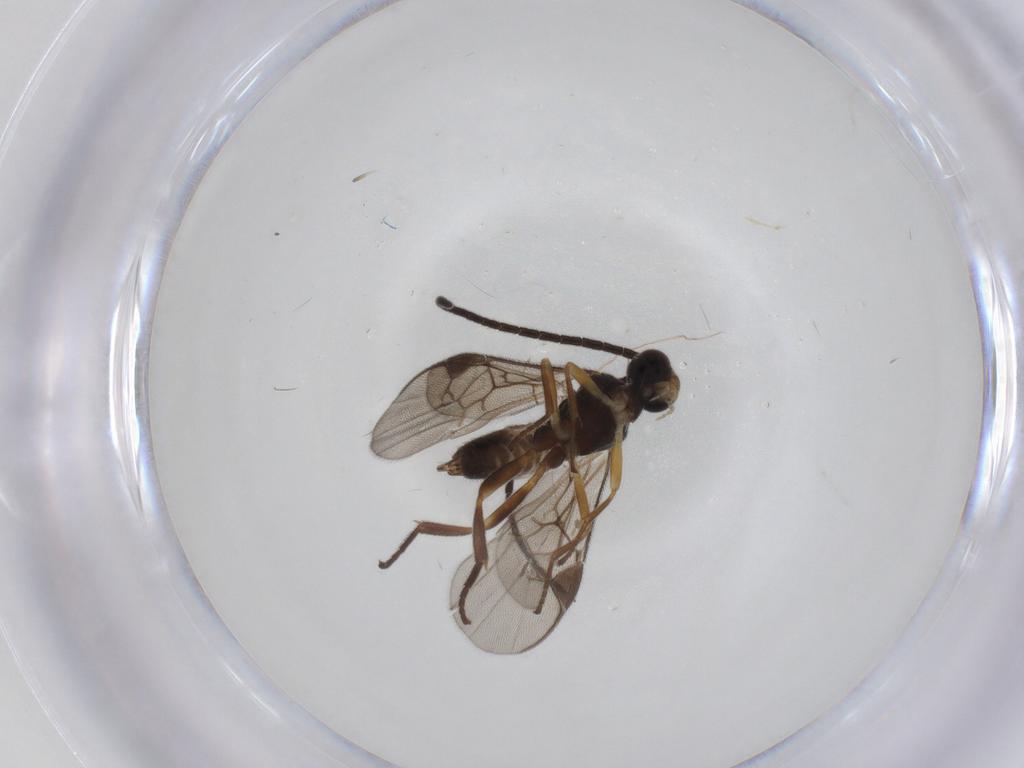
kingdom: Animalia
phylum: Arthropoda
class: Insecta
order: Hymenoptera
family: Braconidae
